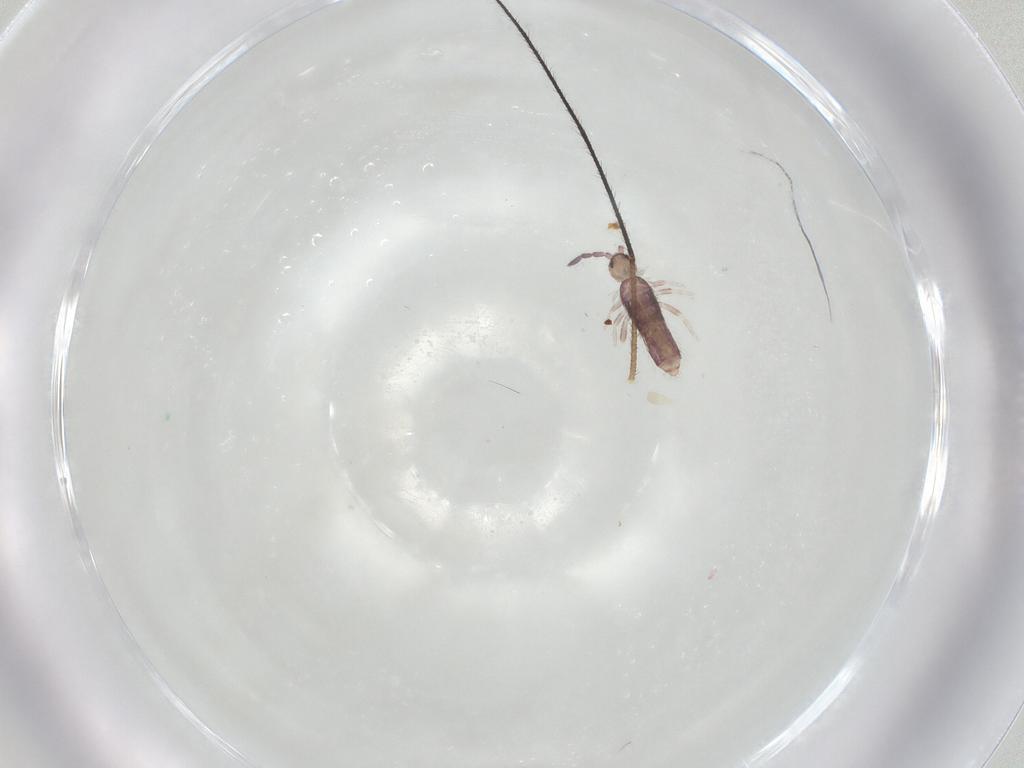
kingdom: Animalia
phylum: Arthropoda
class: Collembola
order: Entomobryomorpha
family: Entomobryidae
